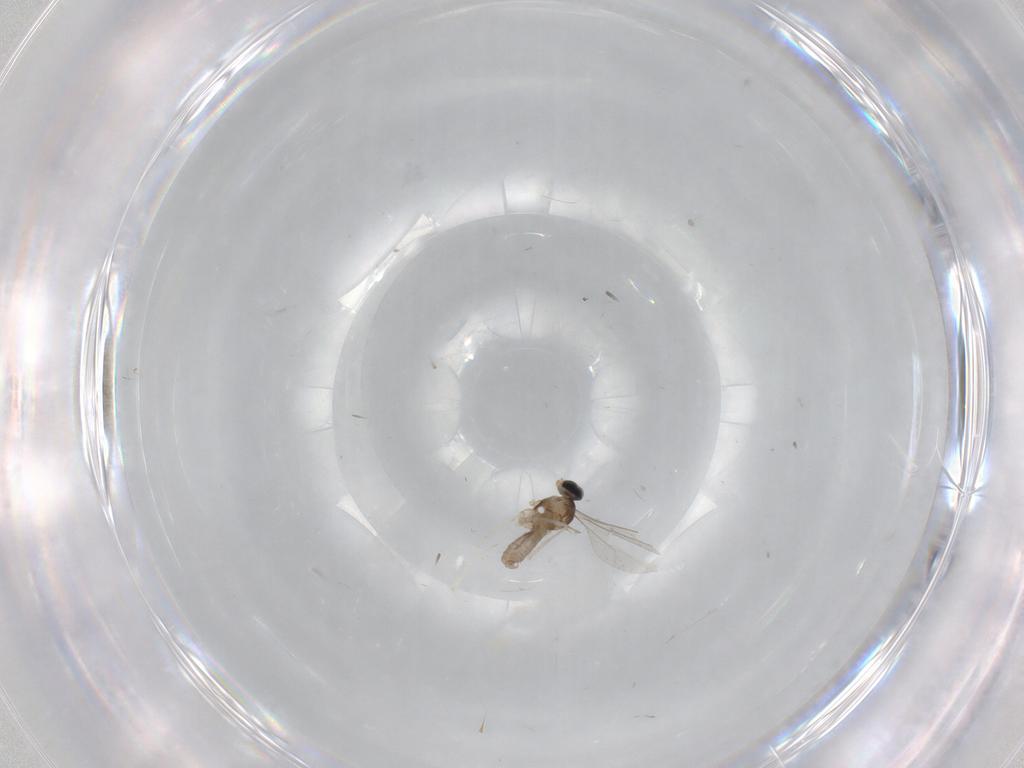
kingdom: Animalia
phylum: Arthropoda
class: Insecta
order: Diptera
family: Cecidomyiidae
